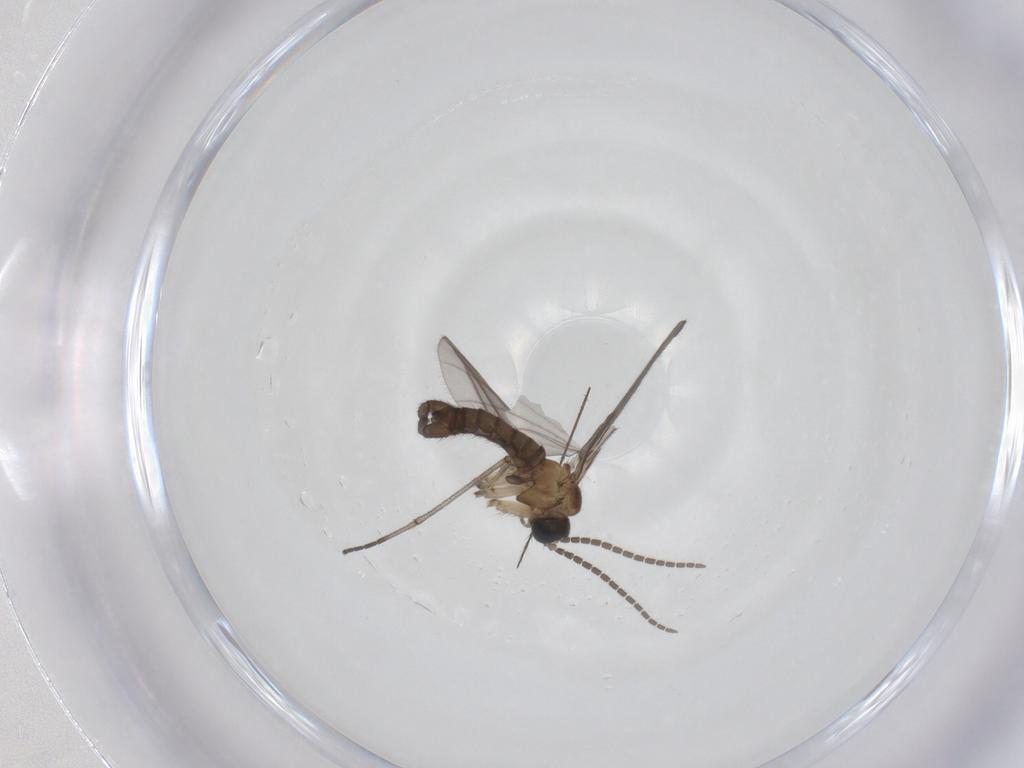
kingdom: Animalia
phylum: Arthropoda
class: Insecta
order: Diptera
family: Sciaridae
